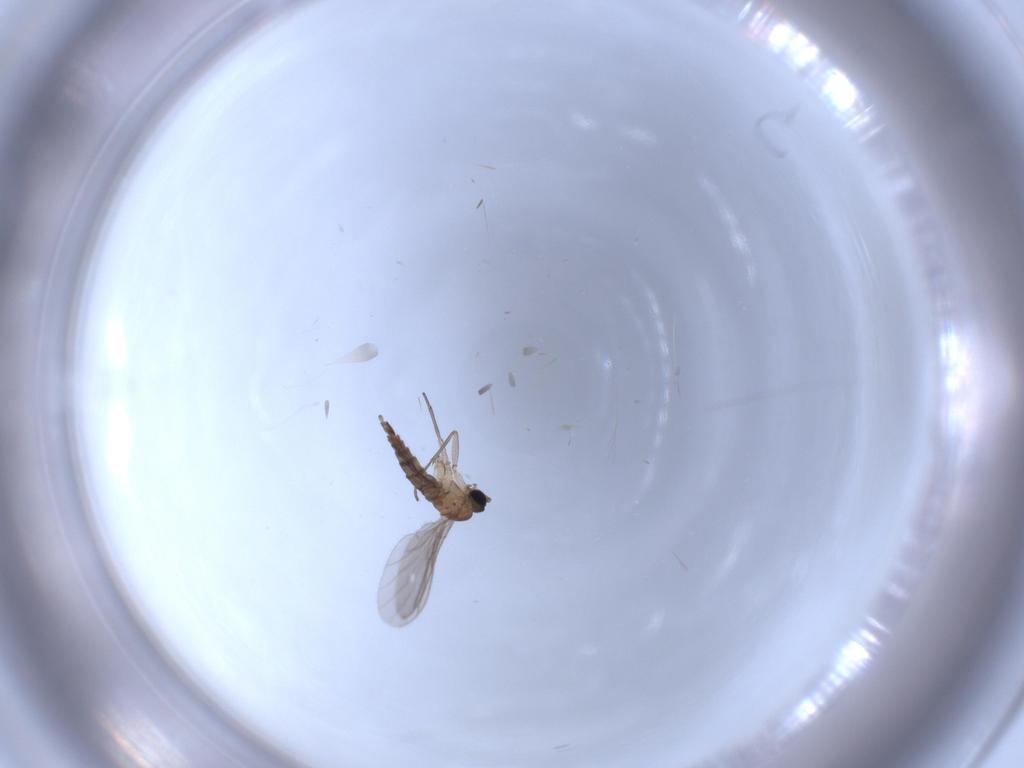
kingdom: Animalia
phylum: Arthropoda
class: Insecta
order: Diptera
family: Sciaridae
